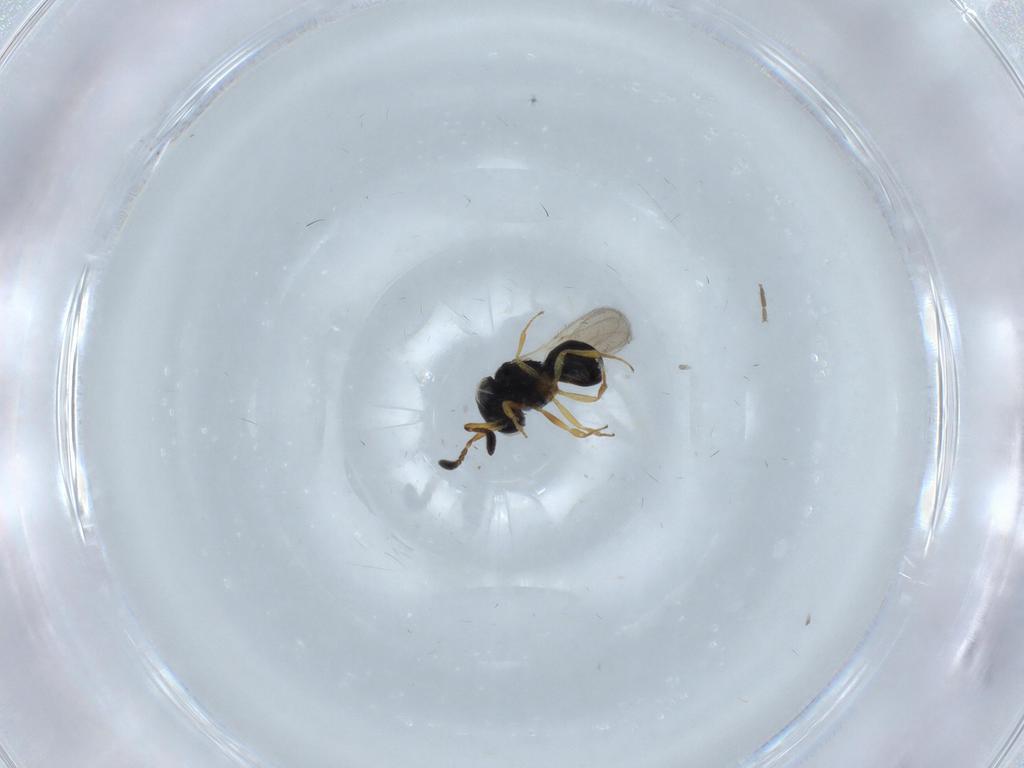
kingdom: Animalia
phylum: Arthropoda
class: Insecta
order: Hymenoptera
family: Scelionidae
